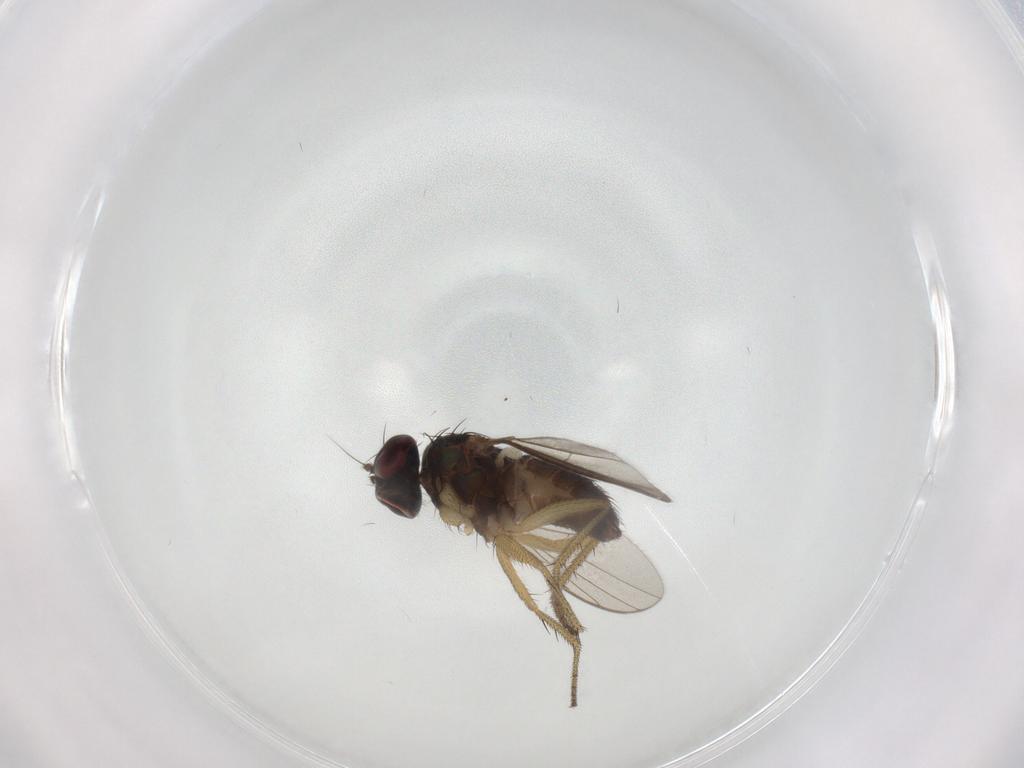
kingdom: Animalia
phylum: Arthropoda
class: Insecta
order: Diptera
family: Dolichopodidae
